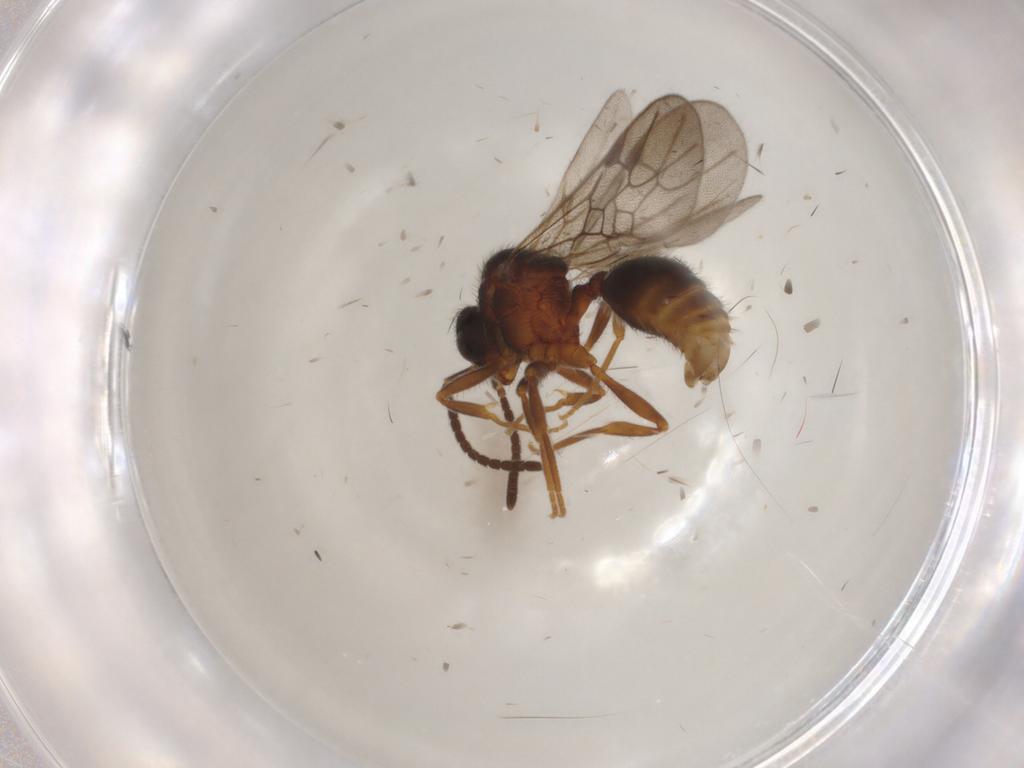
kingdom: Animalia
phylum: Arthropoda
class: Insecta
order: Hymenoptera
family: Formicidae
